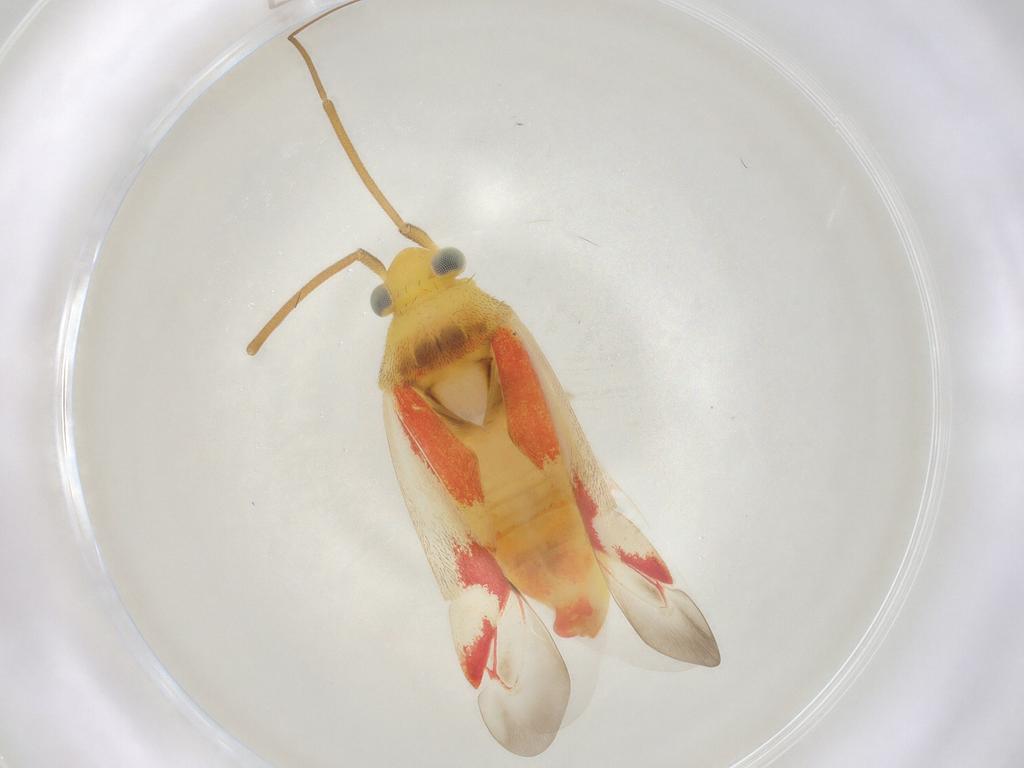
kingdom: Animalia
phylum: Arthropoda
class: Insecta
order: Hemiptera
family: Miridae
